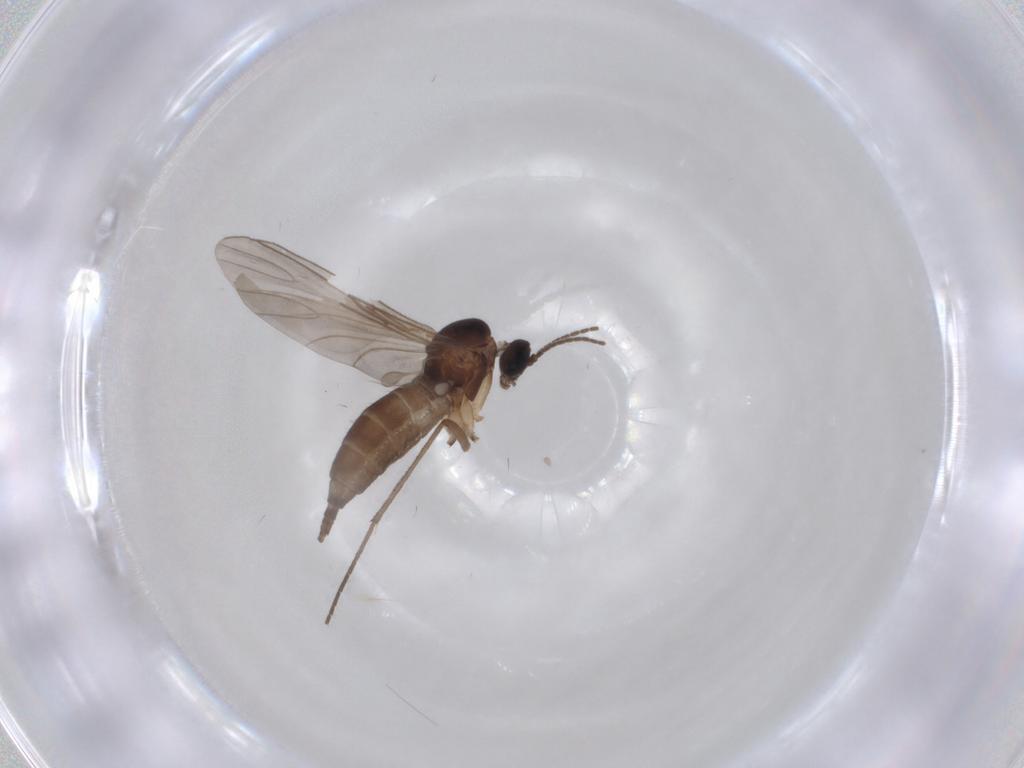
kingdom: Animalia
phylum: Arthropoda
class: Insecta
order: Diptera
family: Sciaridae
